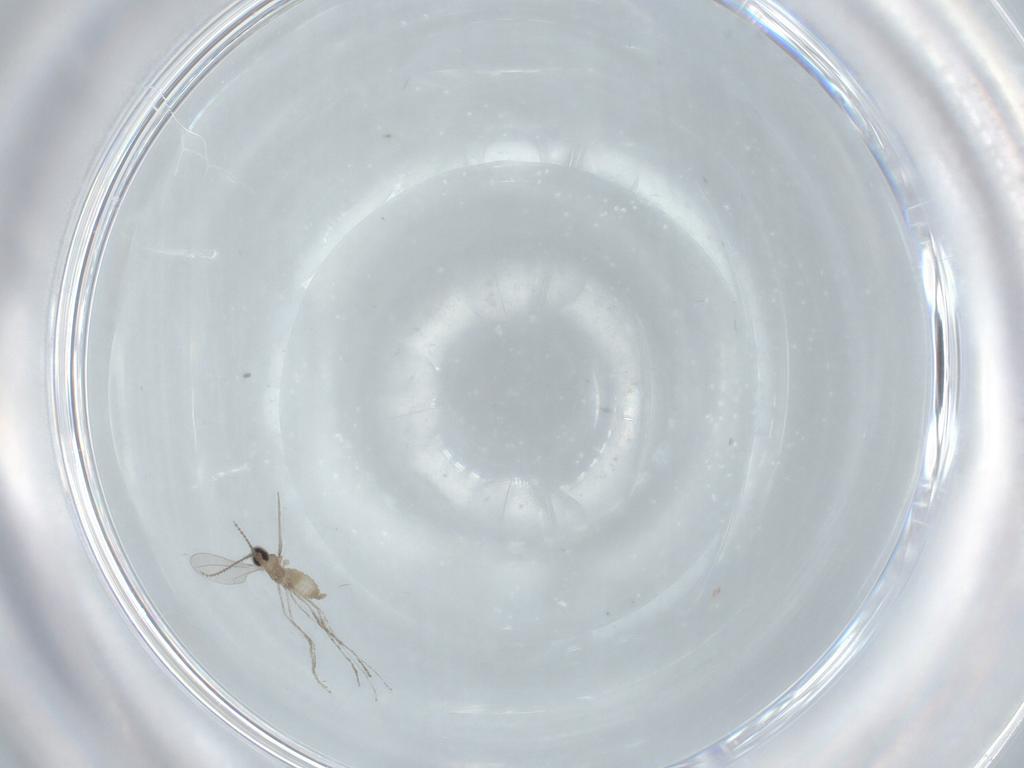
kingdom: Animalia
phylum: Arthropoda
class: Insecta
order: Diptera
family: Cecidomyiidae
